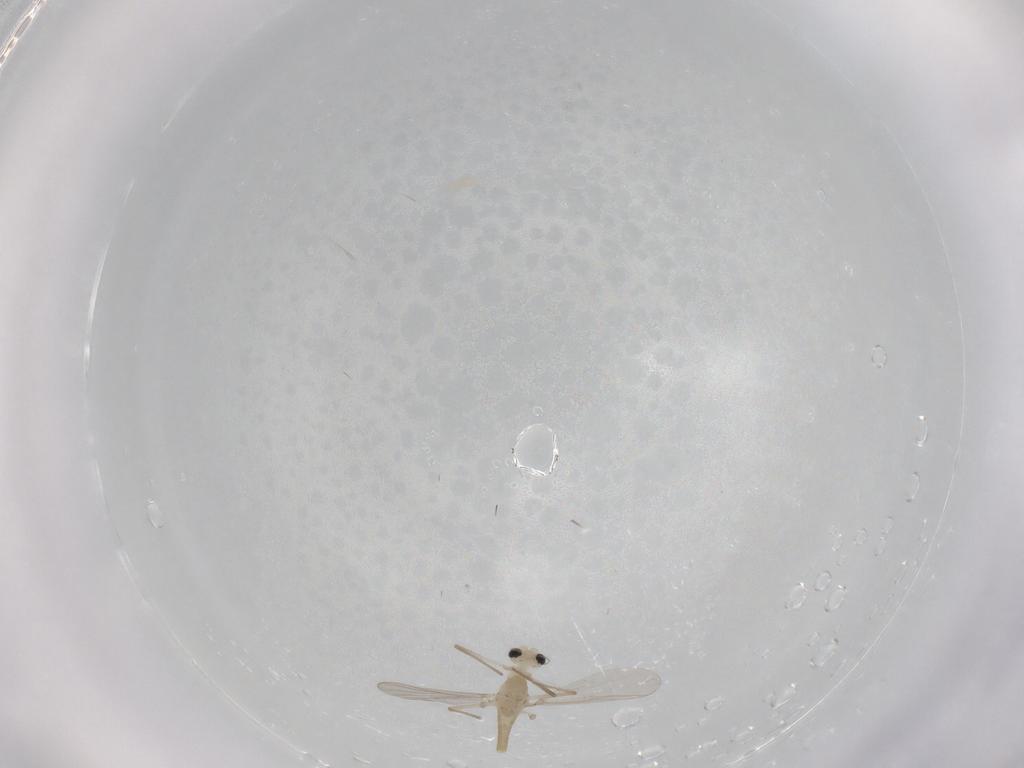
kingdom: Animalia
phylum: Arthropoda
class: Insecta
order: Diptera
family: Chironomidae
